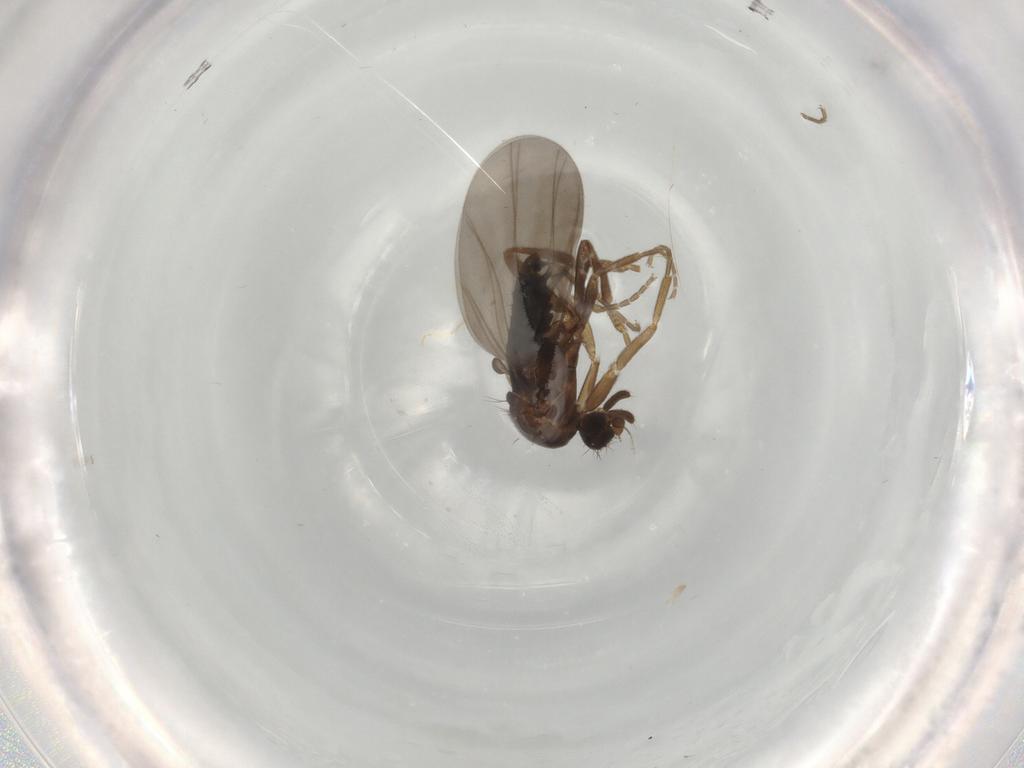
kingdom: Animalia
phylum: Arthropoda
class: Insecta
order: Diptera
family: Phoridae
